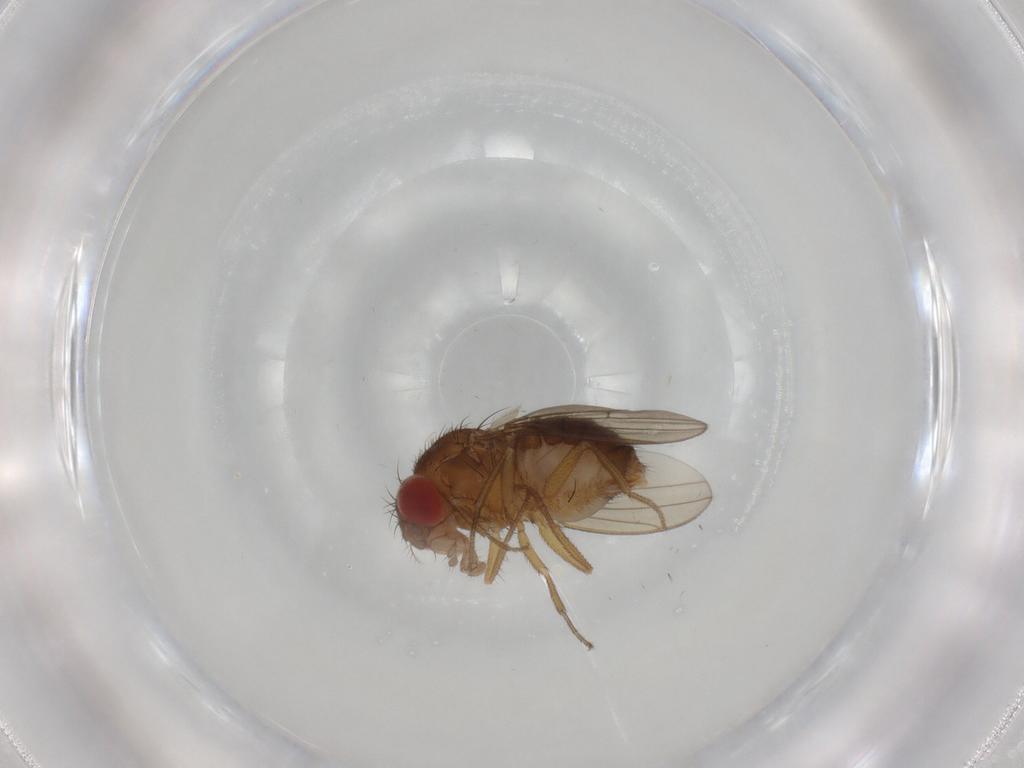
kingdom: Animalia
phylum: Arthropoda
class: Insecta
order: Diptera
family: Drosophilidae
